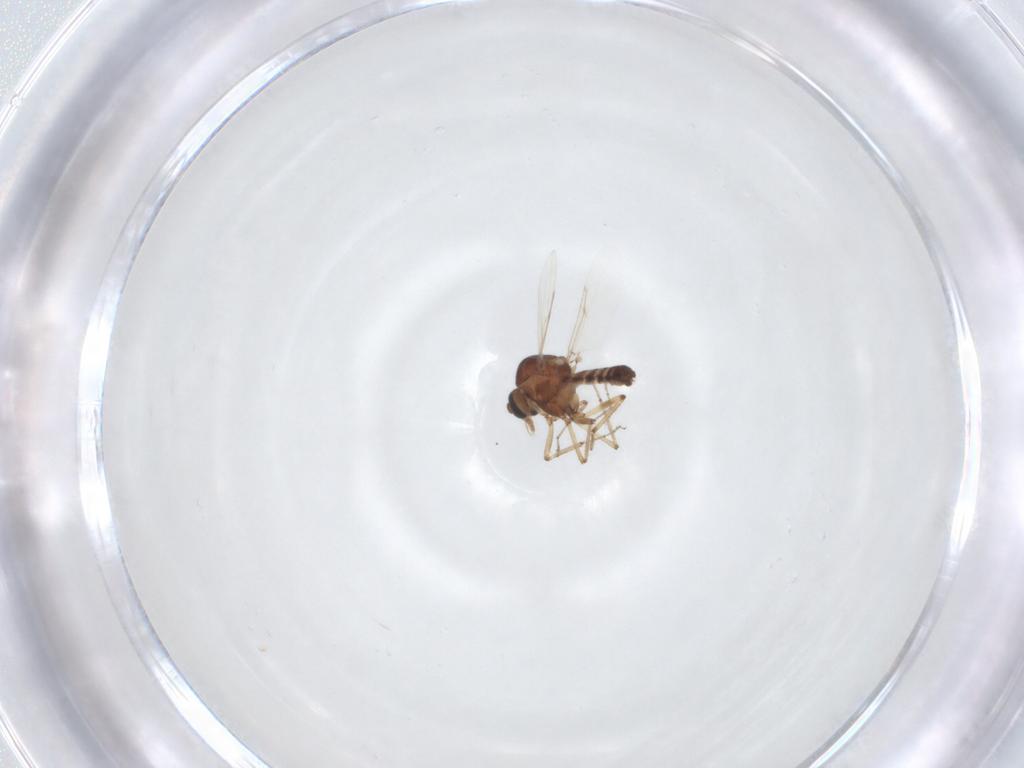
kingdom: Animalia
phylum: Arthropoda
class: Insecta
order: Diptera
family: Ceratopogonidae
